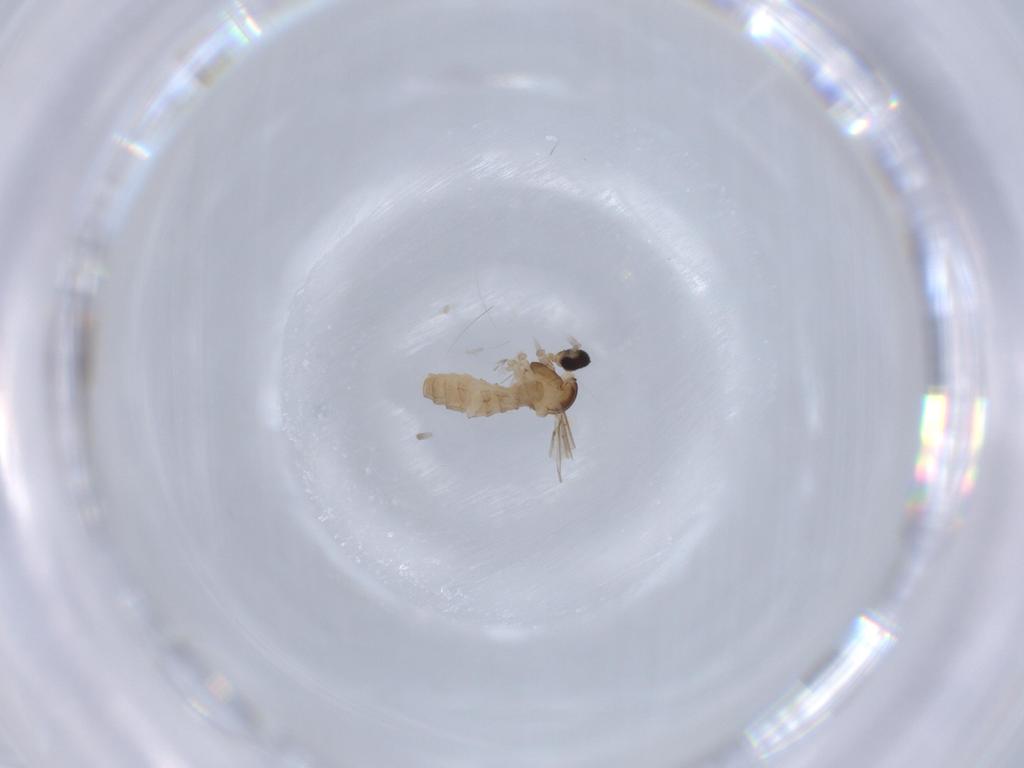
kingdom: Animalia
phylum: Arthropoda
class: Insecta
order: Diptera
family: Cecidomyiidae
